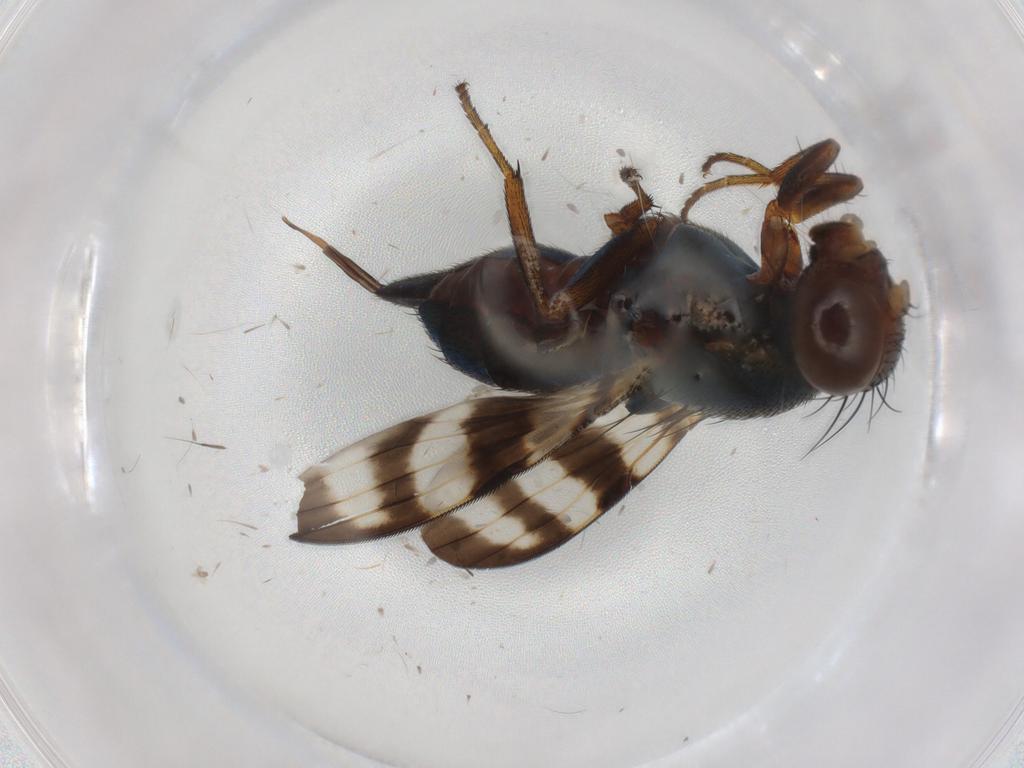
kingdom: Animalia
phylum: Arthropoda
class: Insecta
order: Diptera
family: Ulidiidae
